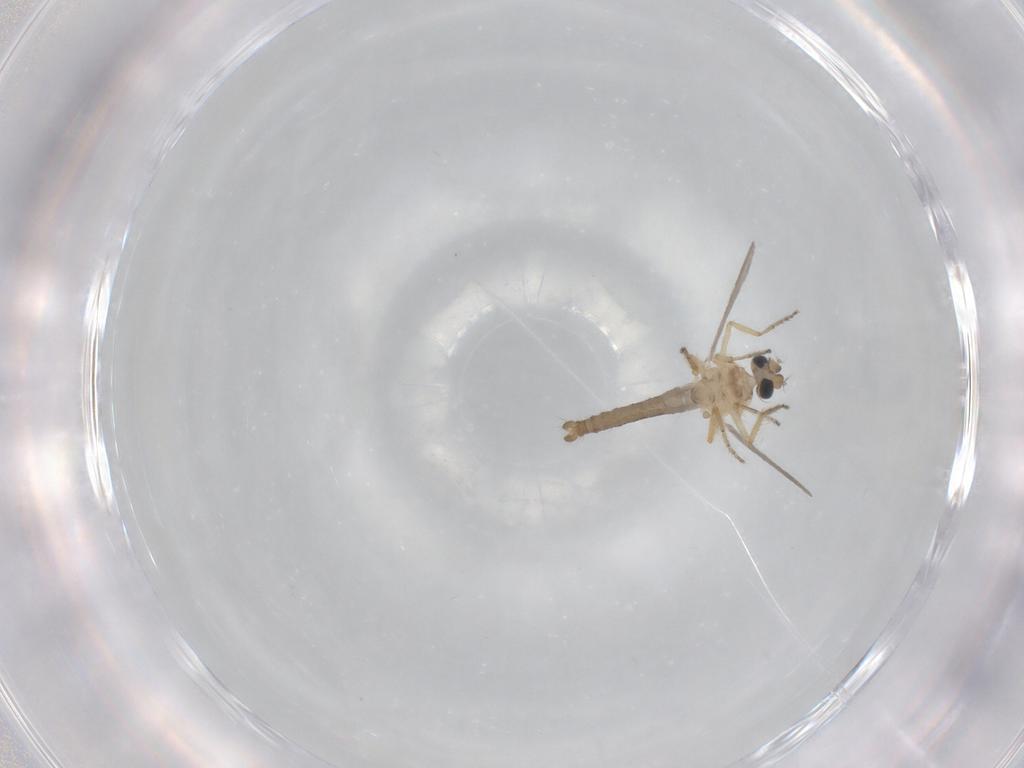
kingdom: Animalia
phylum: Arthropoda
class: Insecta
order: Diptera
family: Ceratopogonidae
